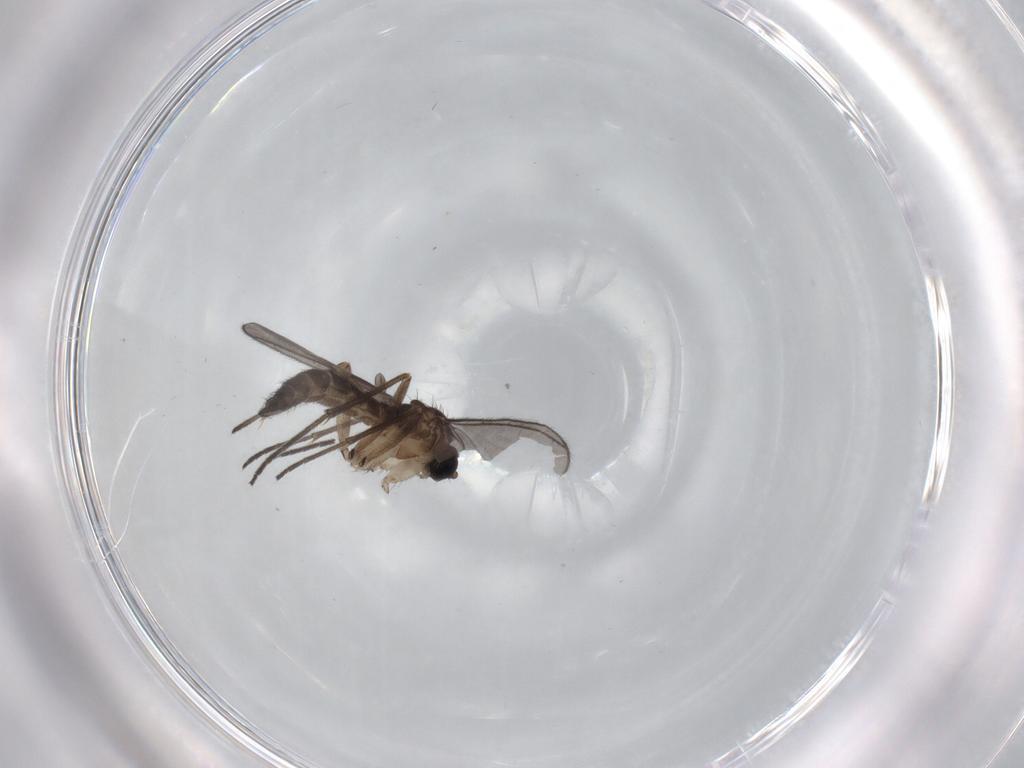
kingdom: Animalia
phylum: Arthropoda
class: Insecta
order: Diptera
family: Sciaridae
